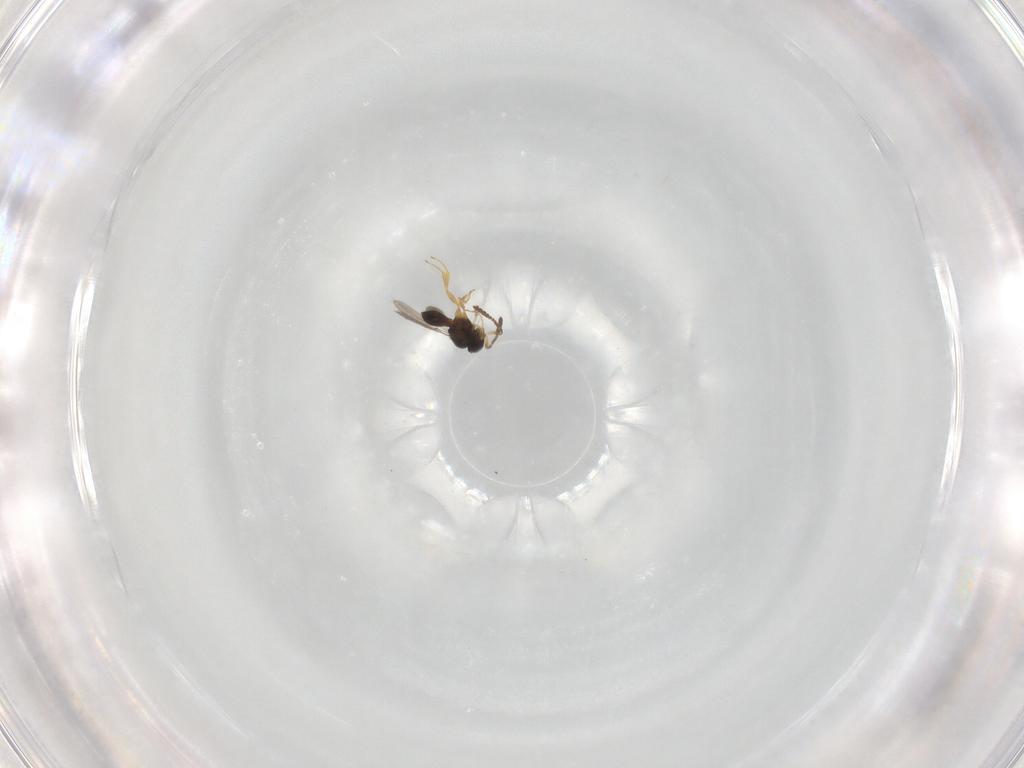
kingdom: Animalia
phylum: Arthropoda
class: Insecta
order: Hymenoptera
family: Scelionidae
